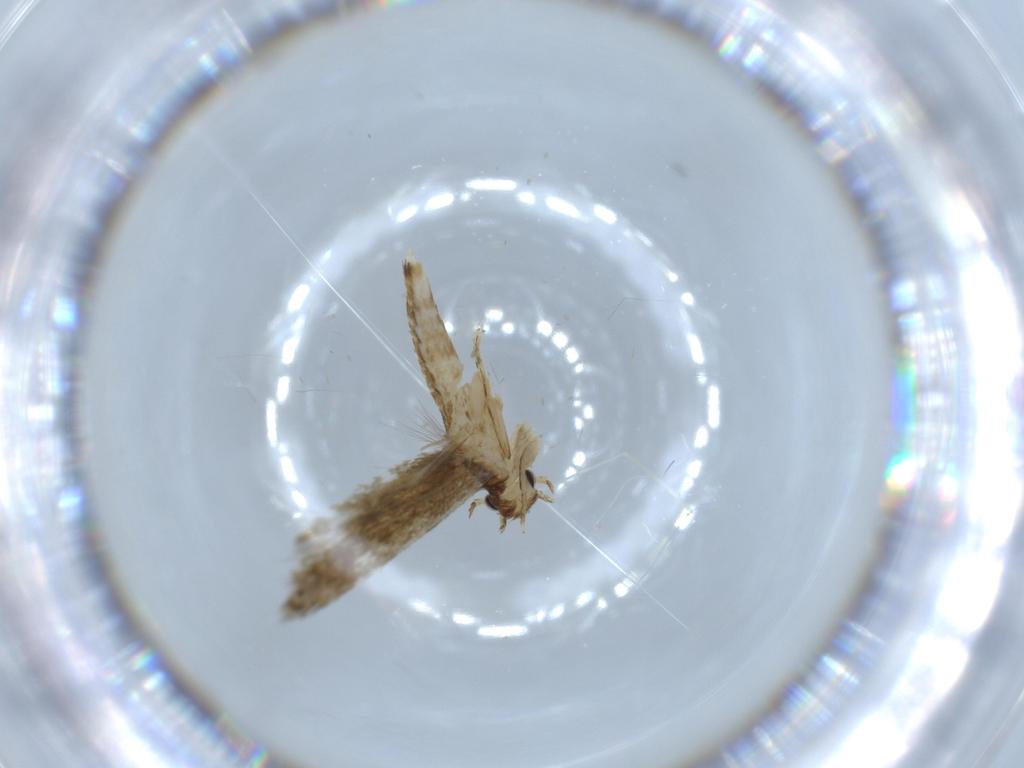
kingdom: Animalia
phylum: Arthropoda
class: Insecta
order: Lepidoptera
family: Tineidae
